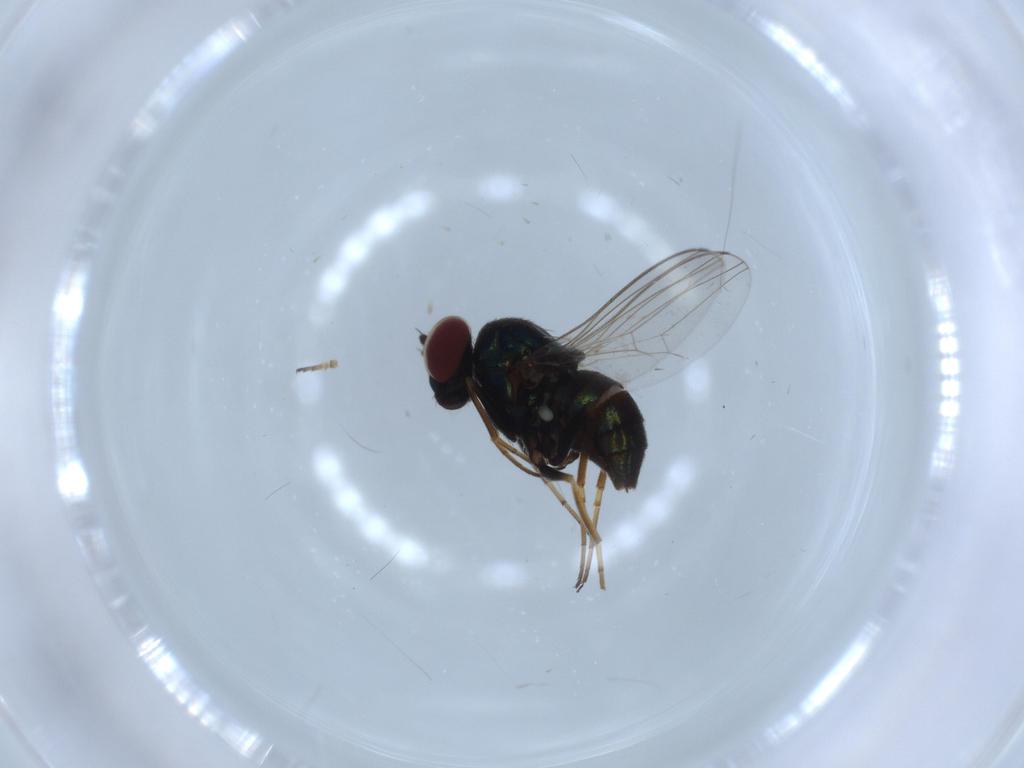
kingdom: Animalia
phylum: Arthropoda
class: Insecta
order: Diptera
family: Dolichopodidae
